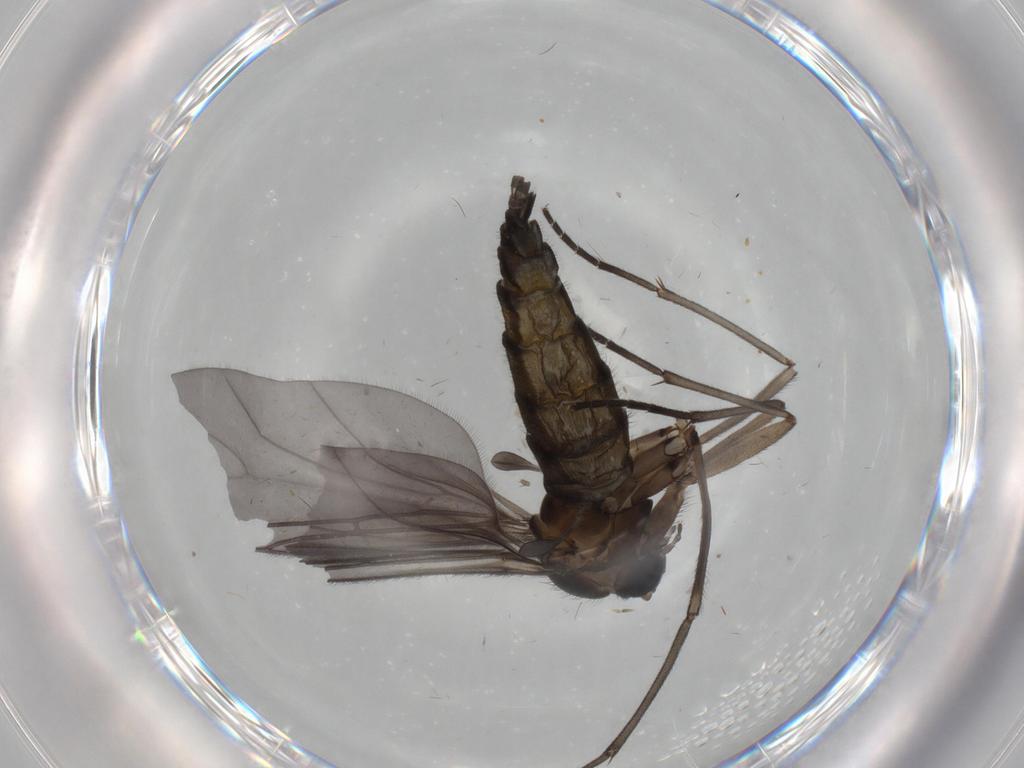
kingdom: Animalia
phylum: Arthropoda
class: Insecta
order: Diptera
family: Sciaridae
